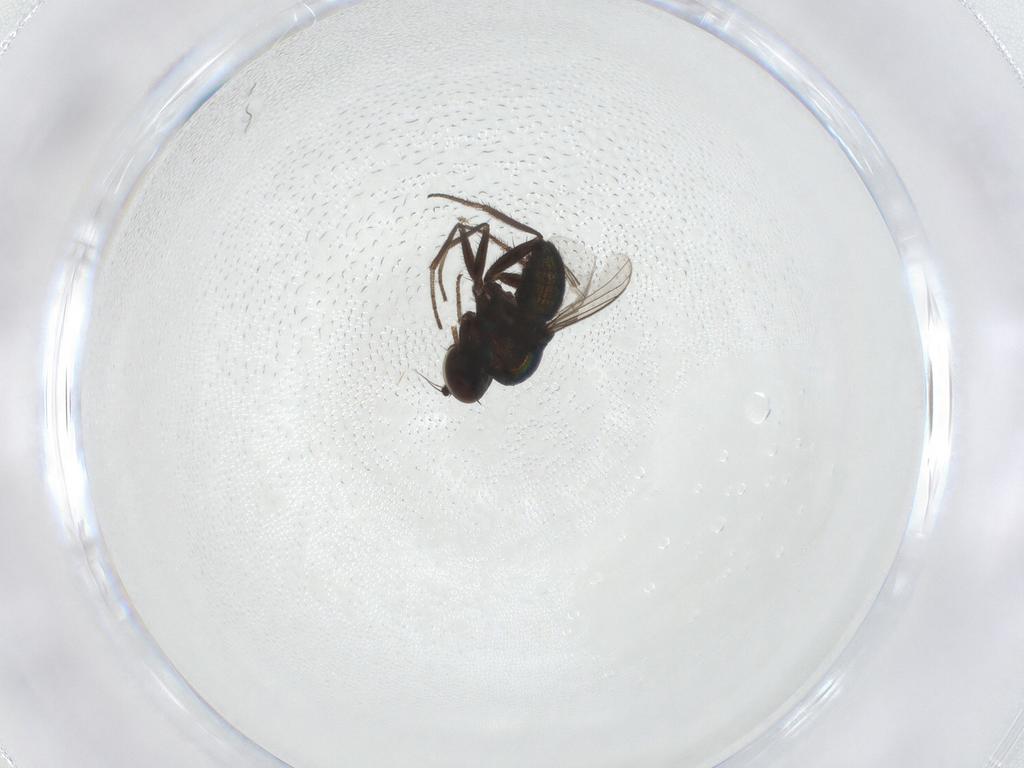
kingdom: Animalia
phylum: Arthropoda
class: Insecta
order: Diptera
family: Dolichopodidae
